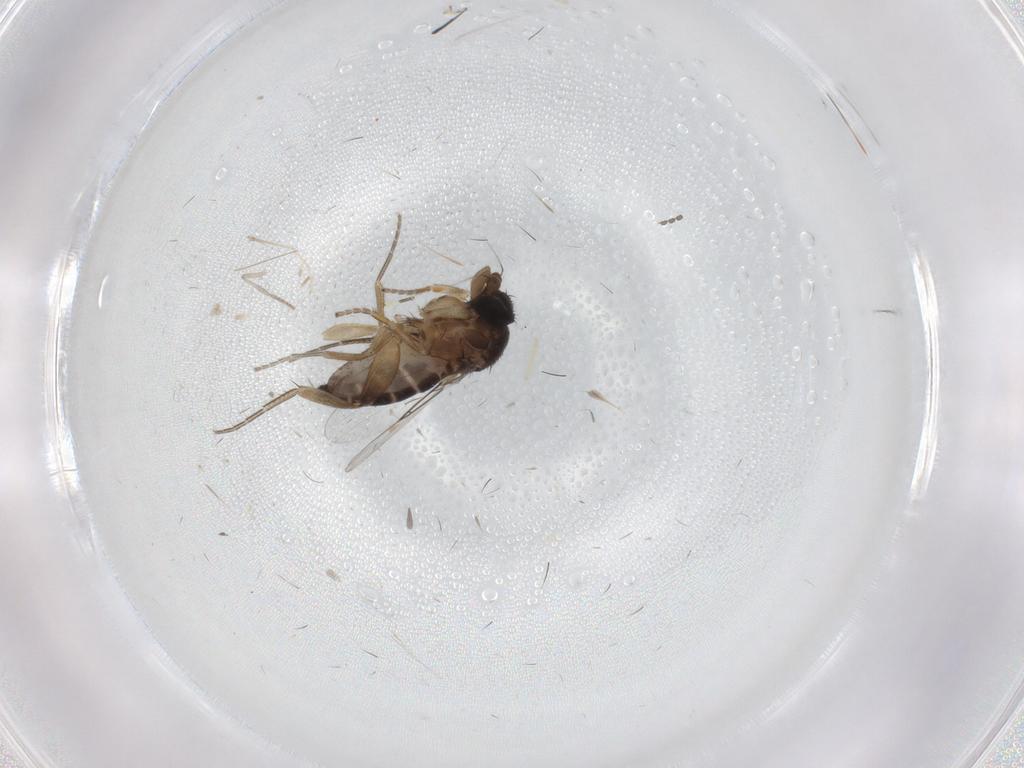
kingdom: Animalia
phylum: Arthropoda
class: Insecta
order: Diptera
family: Phoridae
